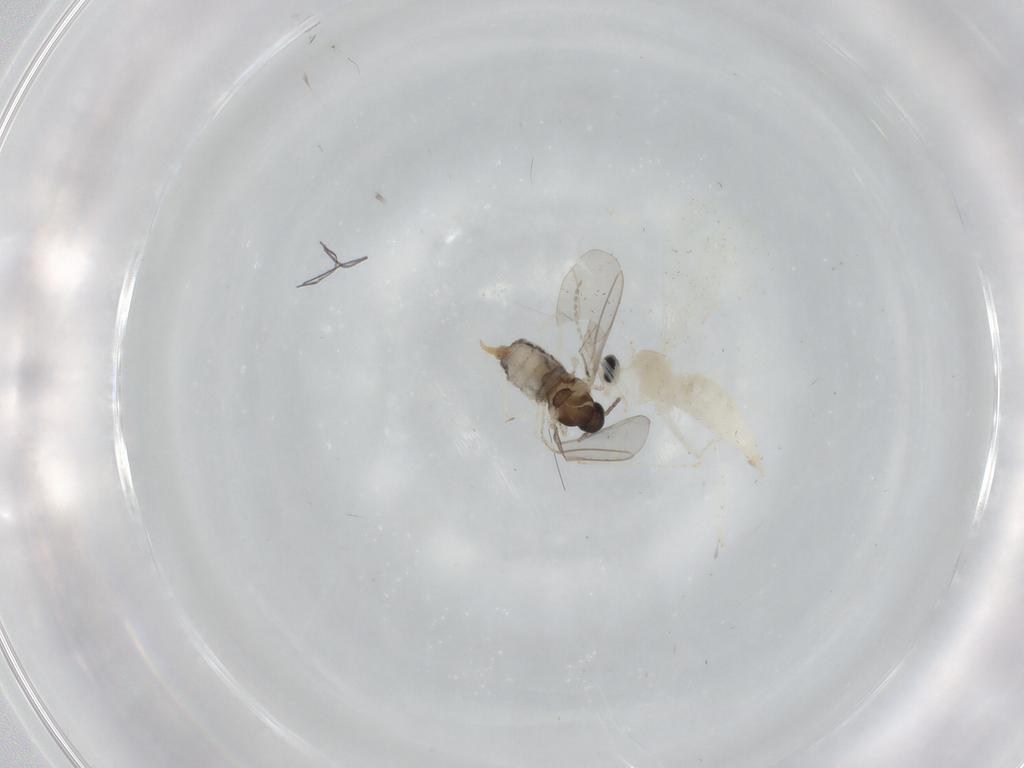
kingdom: Animalia
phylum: Arthropoda
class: Insecta
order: Diptera
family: Cecidomyiidae
